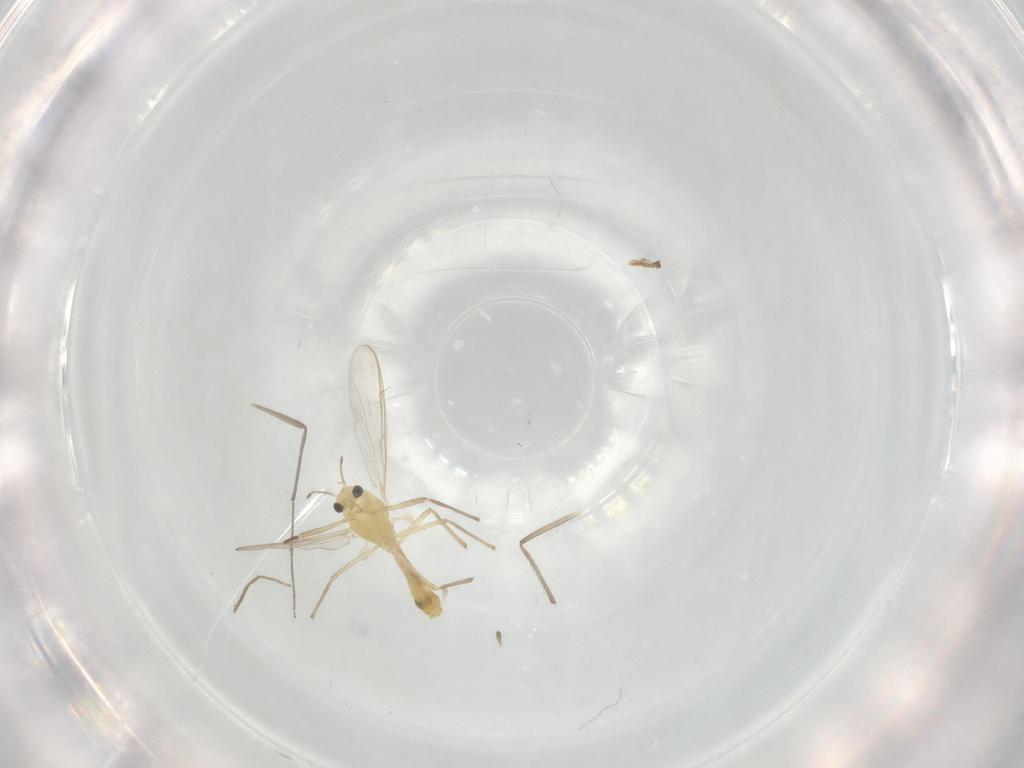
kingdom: Animalia
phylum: Arthropoda
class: Insecta
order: Diptera
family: Chironomidae
